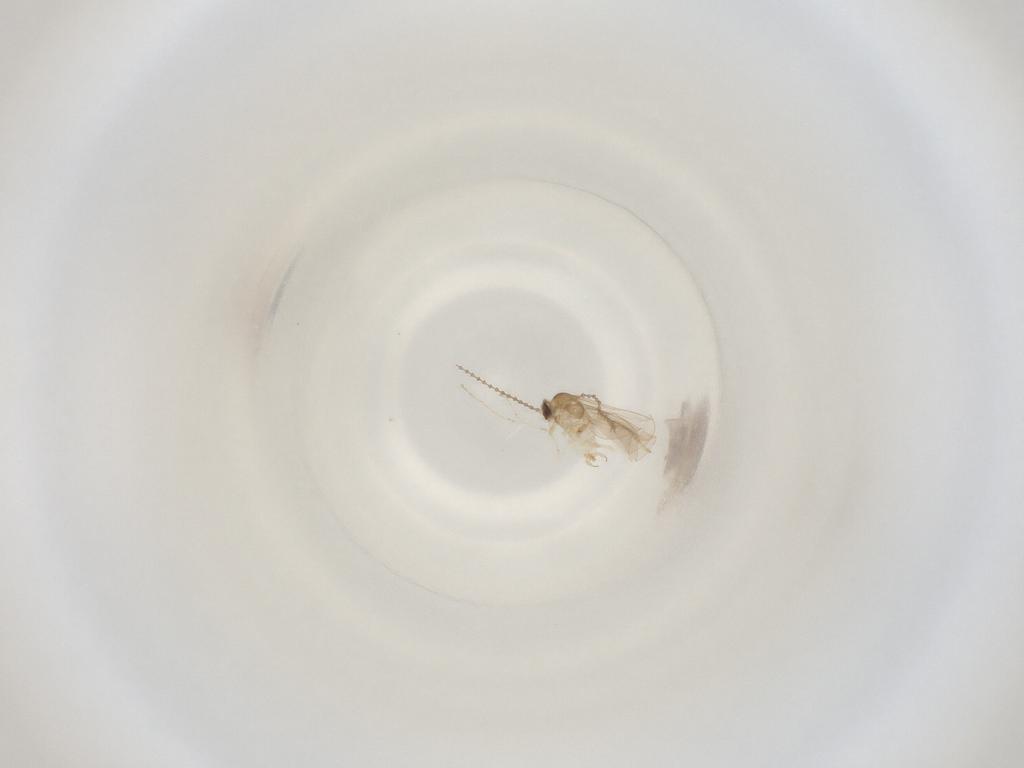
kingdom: Animalia
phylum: Arthropoda
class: Insecta
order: Diptera
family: Cecidomyiidae
